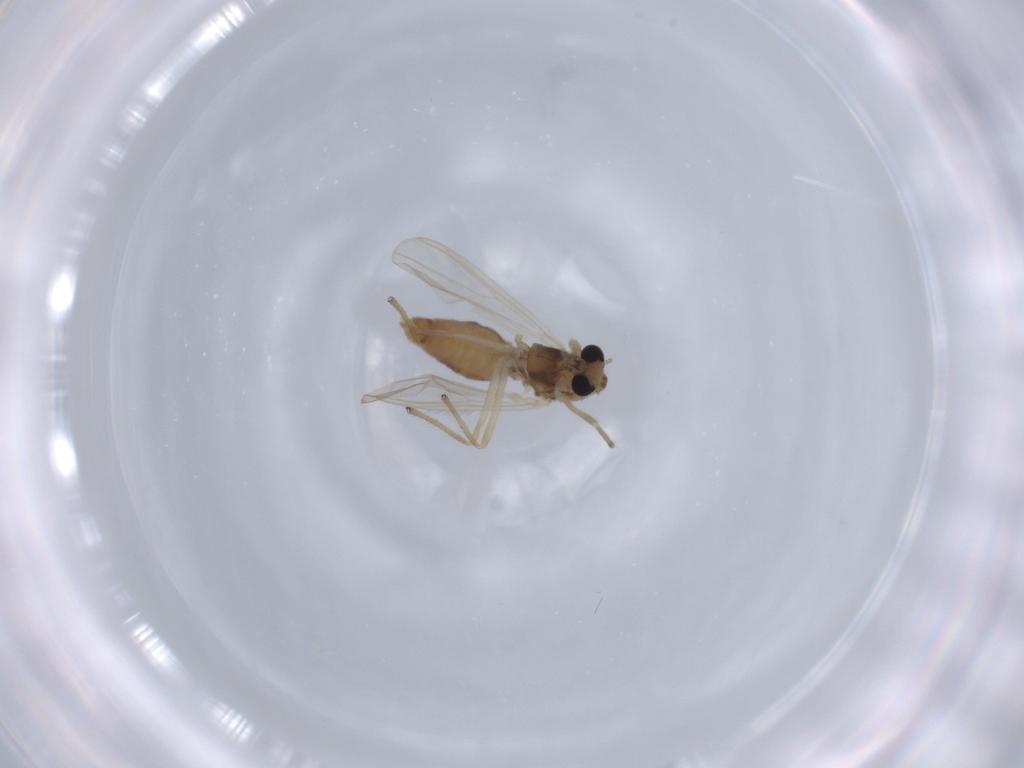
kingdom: Animalia
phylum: Arthropoda
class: Insecta
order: Diptera
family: Chironomidae
